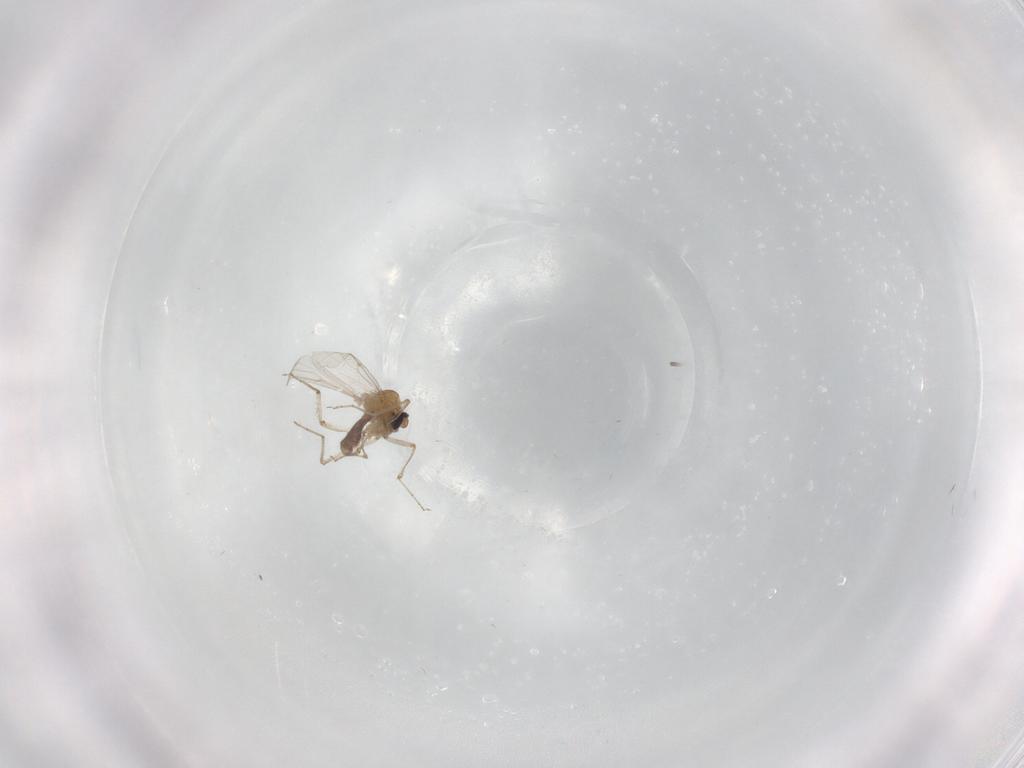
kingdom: Animalia
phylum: Arthropoda
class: Insecta
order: Diptera
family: Ceratopogonidae
